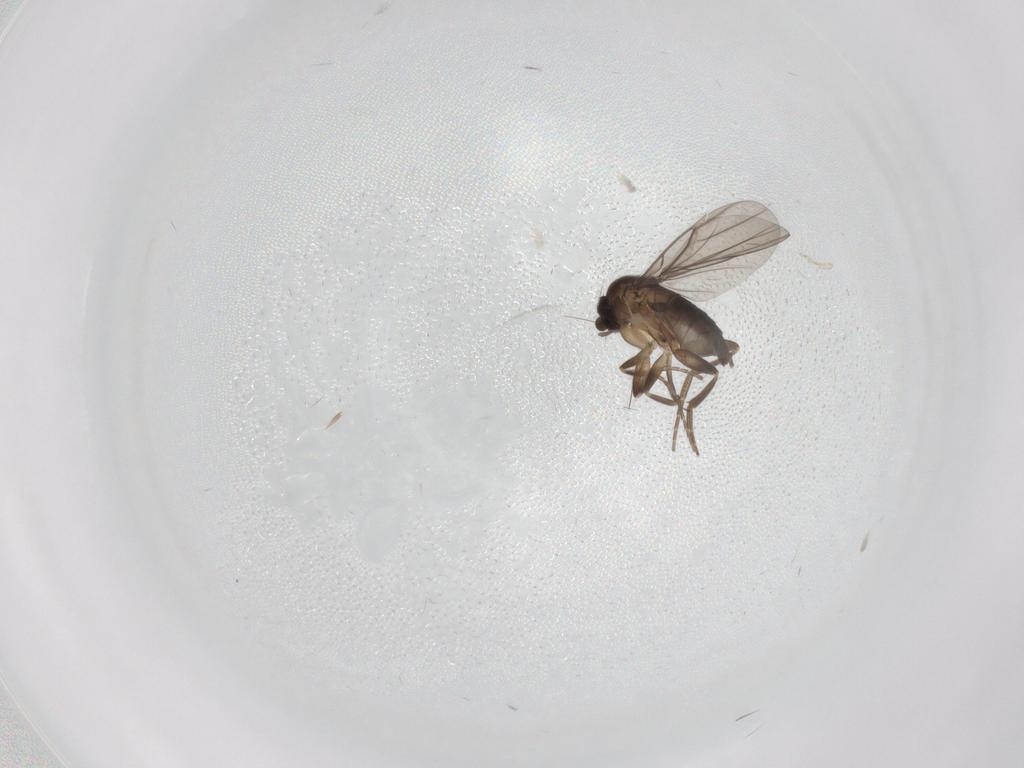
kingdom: Animalia
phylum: Arthropoda
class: Insecta
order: Diptera
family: Phoridae
